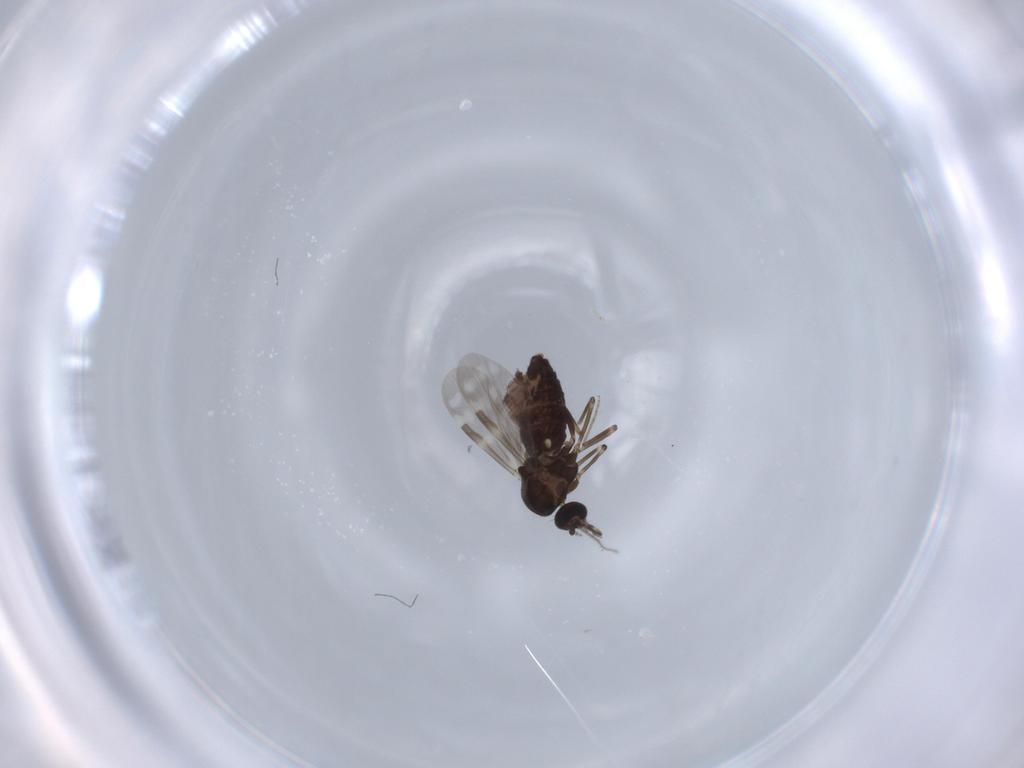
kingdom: Animalia
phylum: Arthropoda
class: Insecta
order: Diptera
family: Ceratopogonidae
